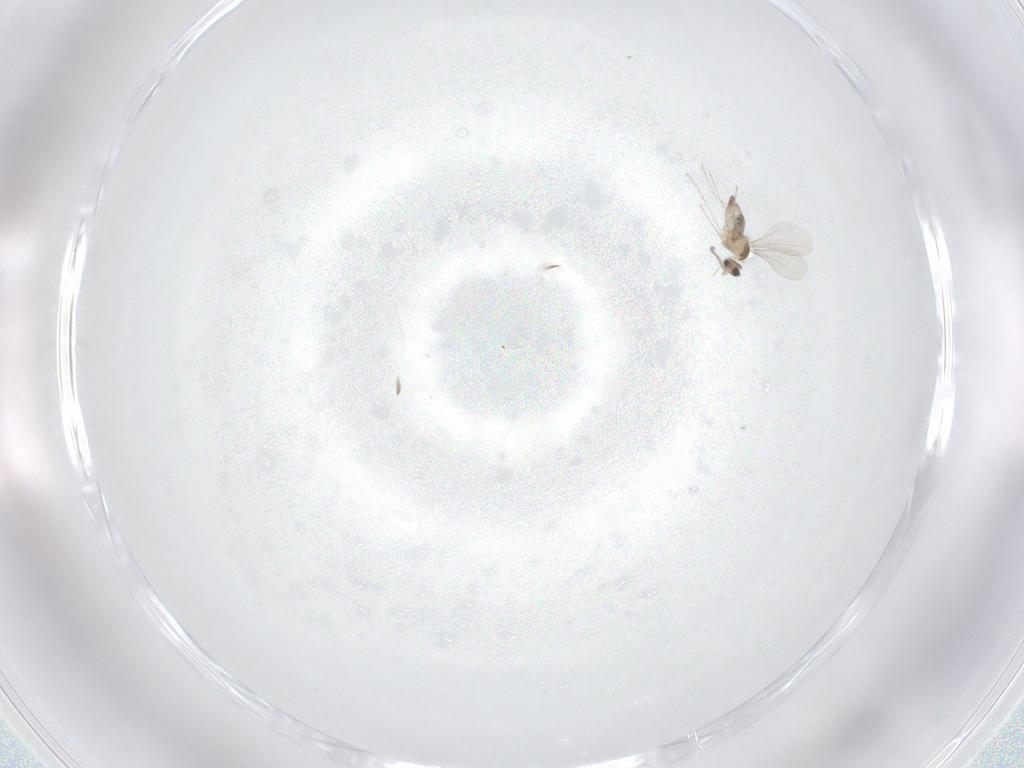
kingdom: Animalia
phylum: Arthropoda
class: Insecta
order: Diptera
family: Cecidomyiidae
